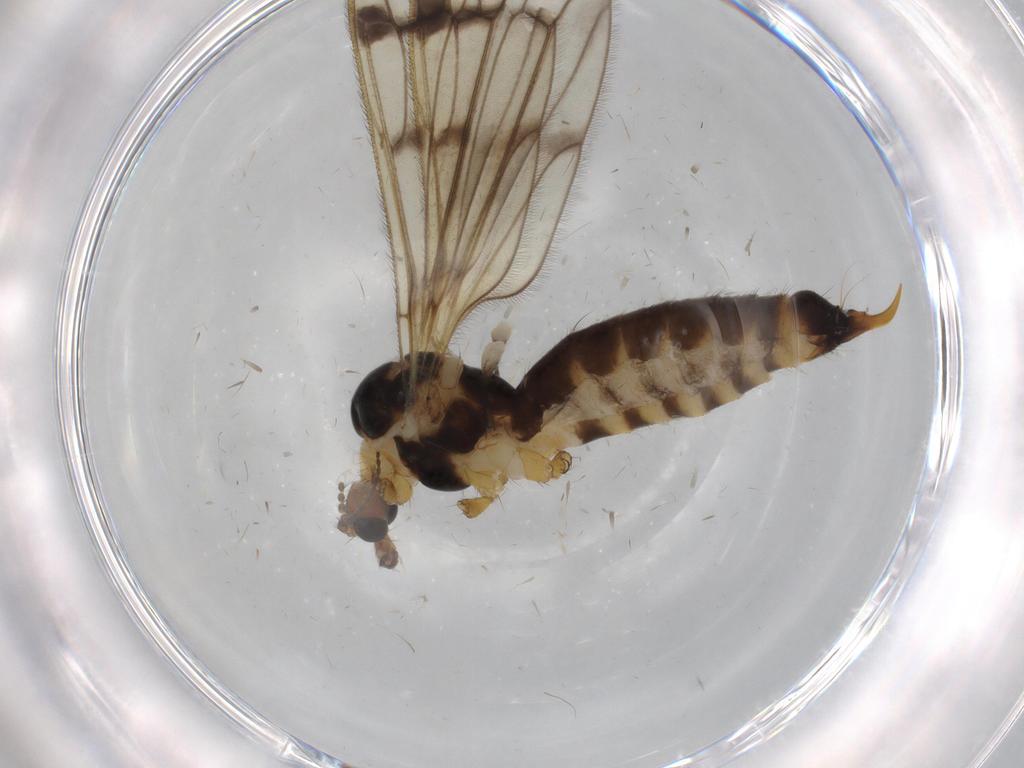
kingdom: Animalia
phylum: Arthropoda
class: Insecta
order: Diptera
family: Limoniidae
